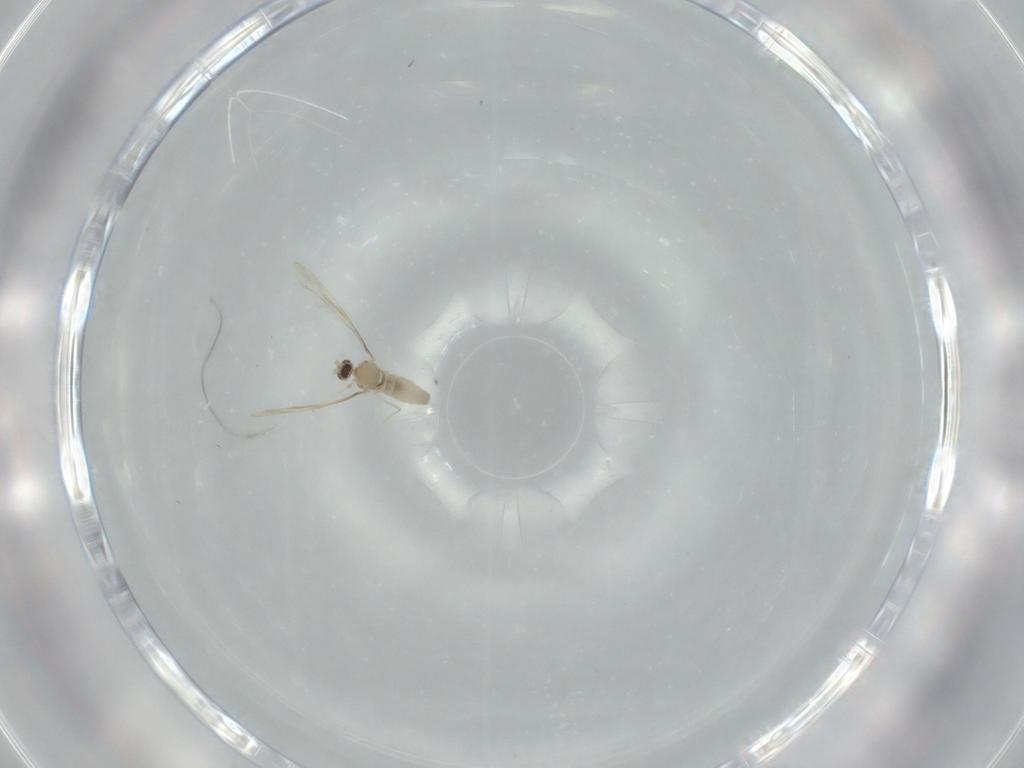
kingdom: Animalia
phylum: Arthropoda
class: Insecta
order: Diptera
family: Cecidomyiidae
